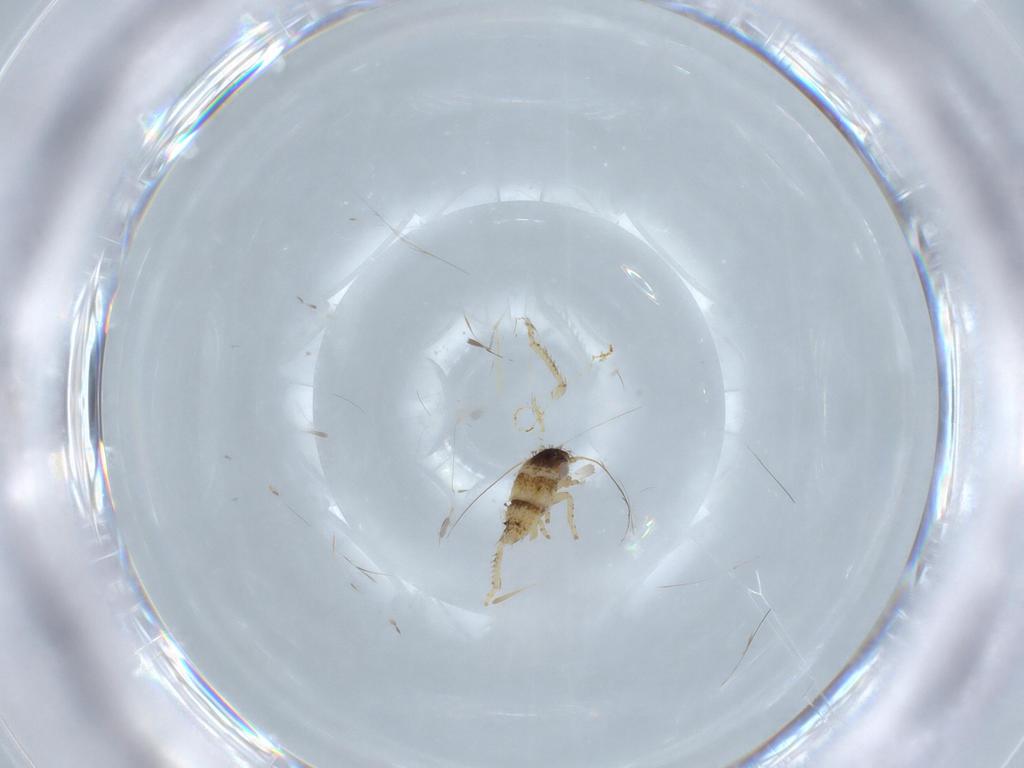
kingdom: Animalia
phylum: Arthropoda
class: Insecta
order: Hemiptera
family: Cicadellidae
